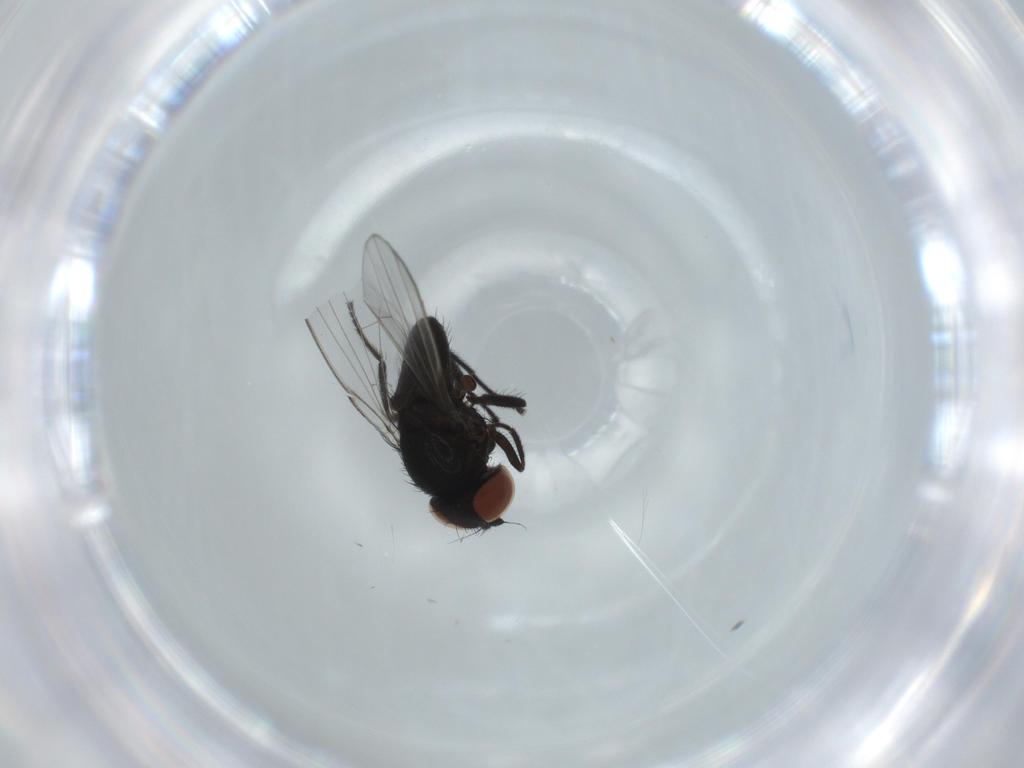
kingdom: Animalia
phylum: Arthropoda
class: Insecta
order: Diptera
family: Milichiidae
